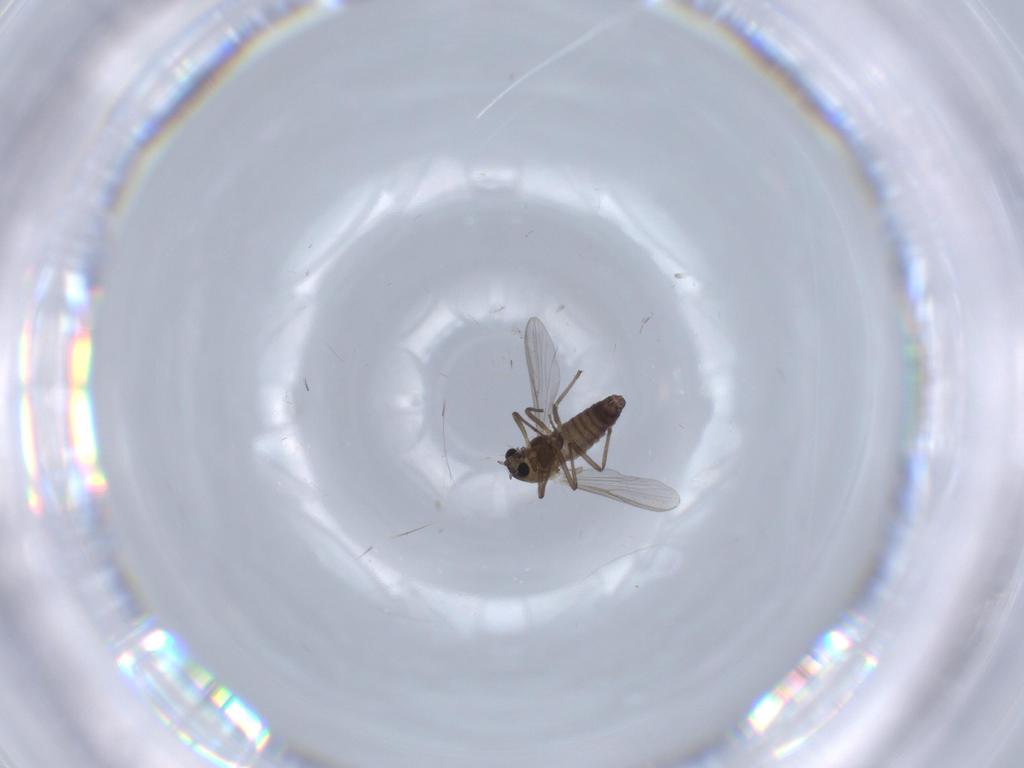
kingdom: Animalia
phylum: Arthropoda
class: Insecta
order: Diptera
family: Chironomidae
